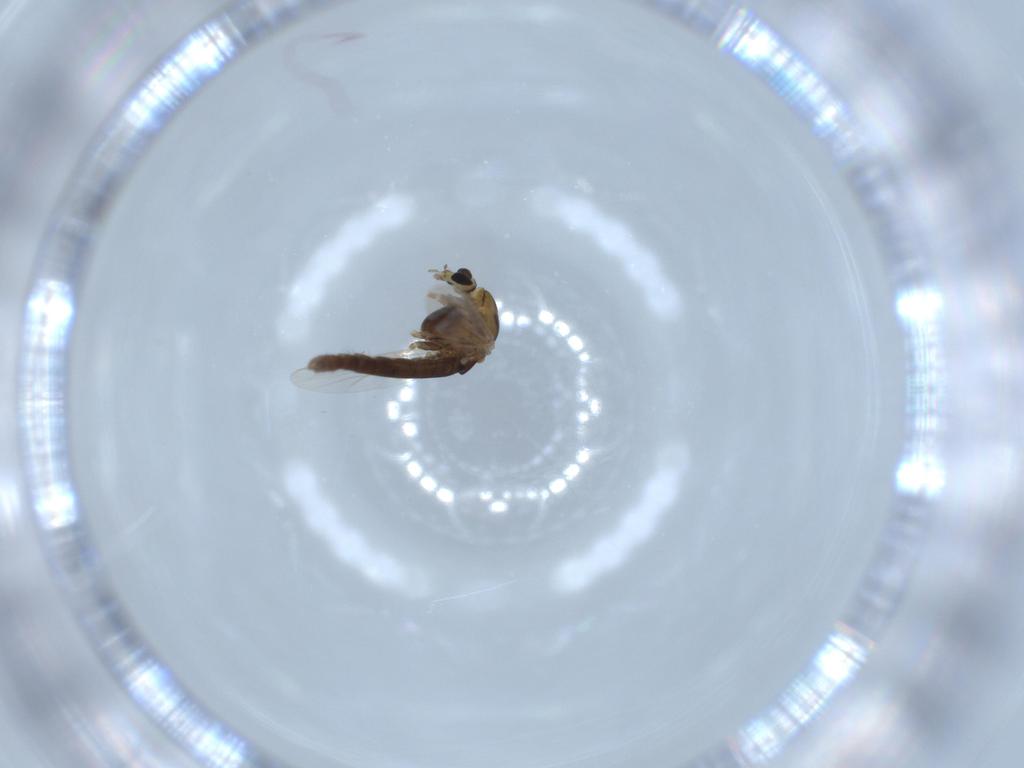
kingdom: Animalia
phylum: Arthropoda
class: Insecta
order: Diptera
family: Chironomidae
